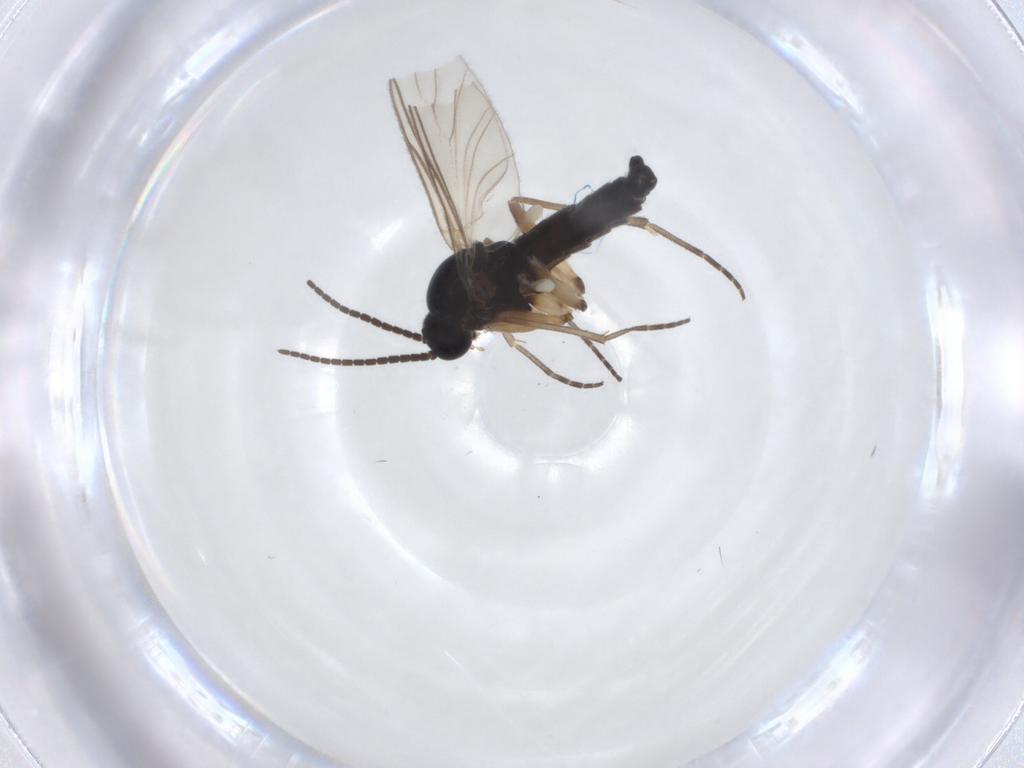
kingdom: Animalia
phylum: Arthropoda
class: Insecta
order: Diptera
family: Sciaridae
